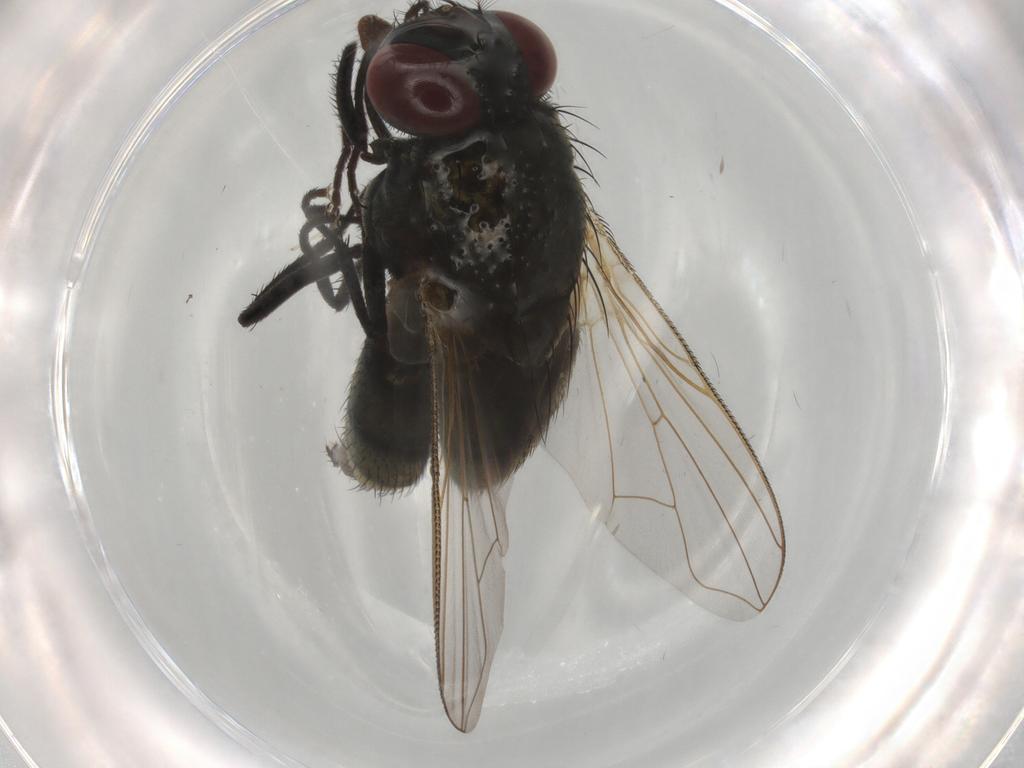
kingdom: Animalia
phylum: Arthropoda
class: Insecta
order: Diptera
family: Muscidae
